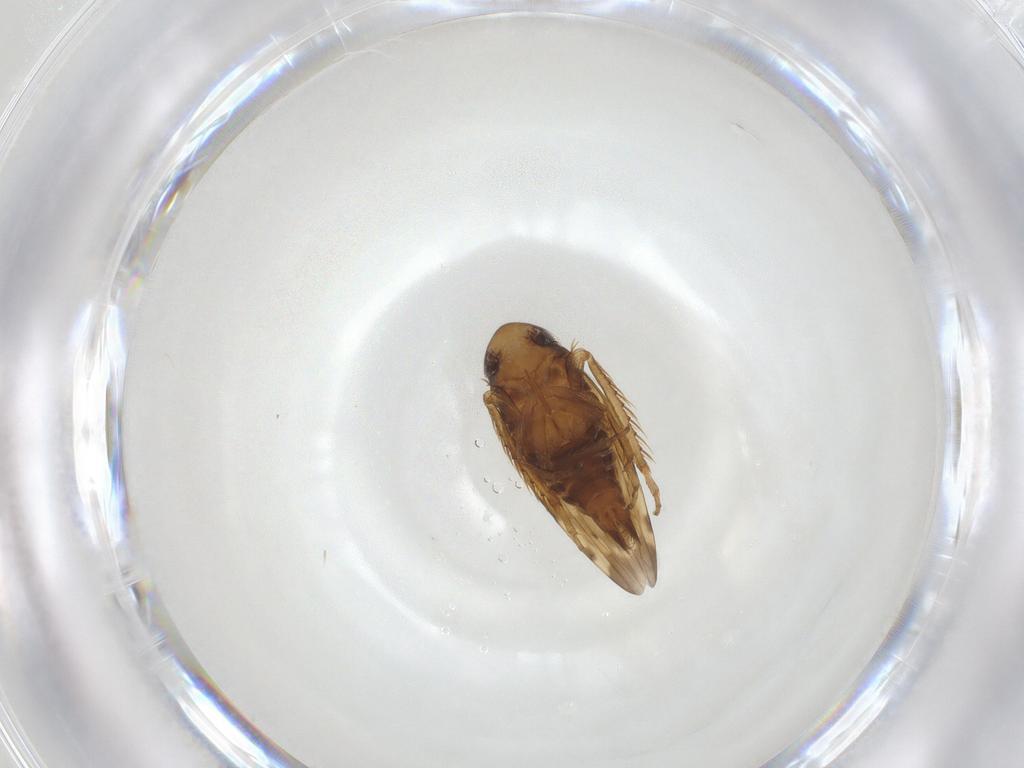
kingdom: Animalia
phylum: Arthropoda
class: Insecta
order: Hemiptera
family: Cicadellidae
